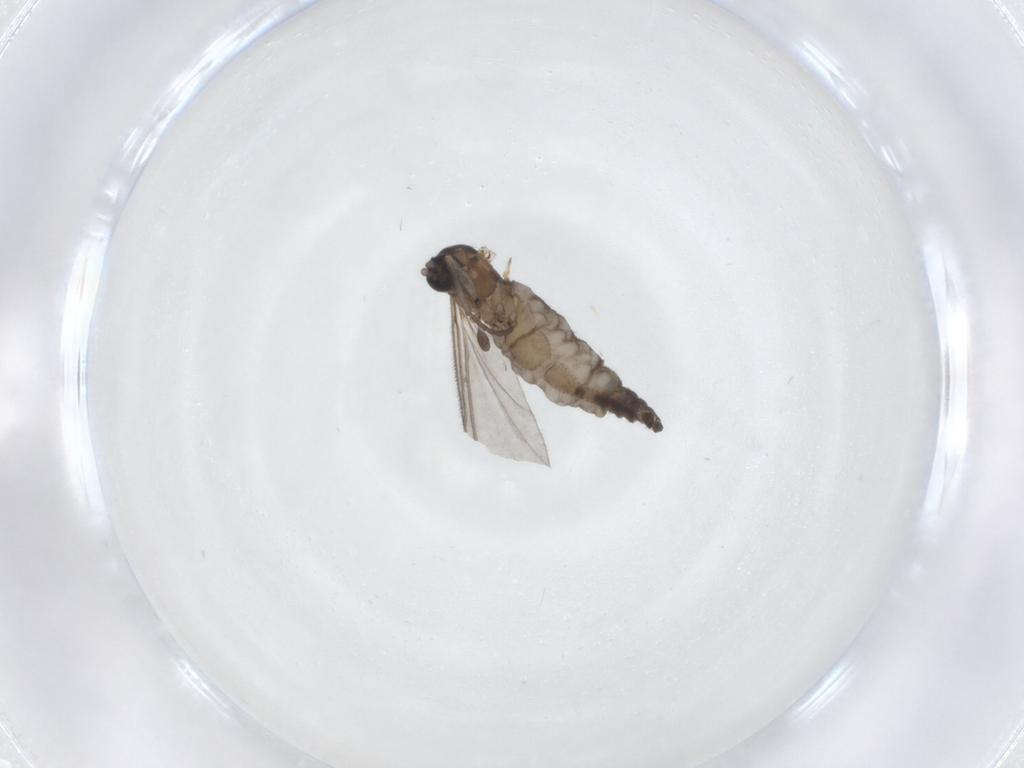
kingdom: Animalia
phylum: Arthropoda
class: Insecta
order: Diptera
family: Sciaridae
